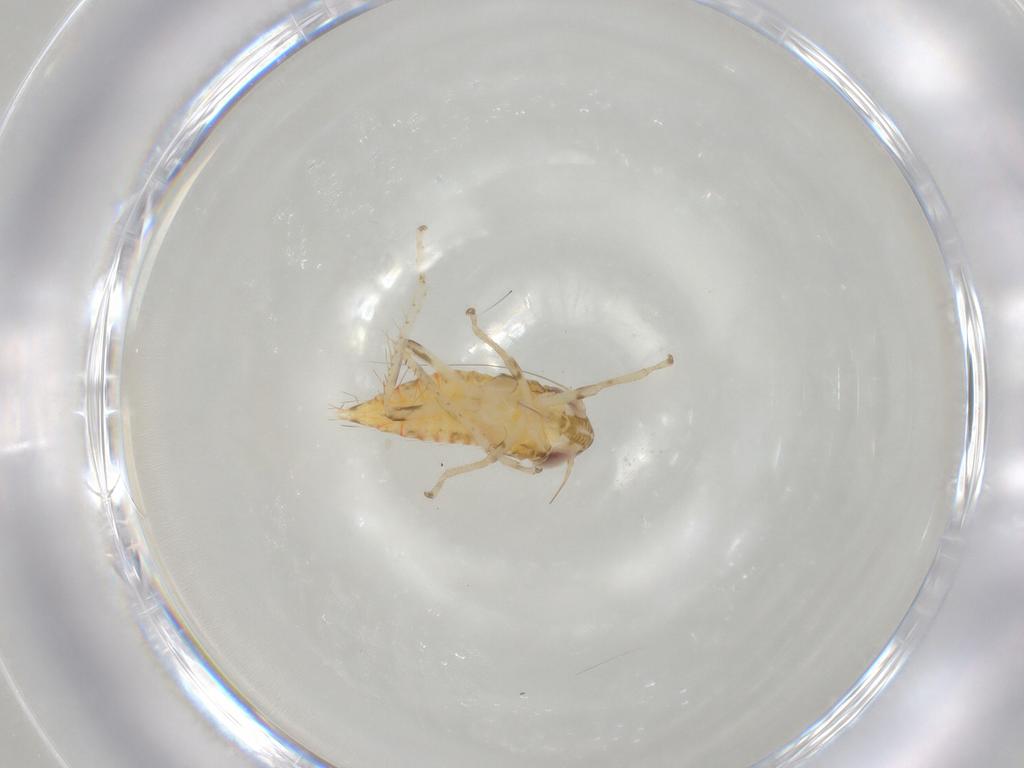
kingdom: Animalia
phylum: Arthropoda
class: Insecta
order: Hemiptera
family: Cicadellidae
